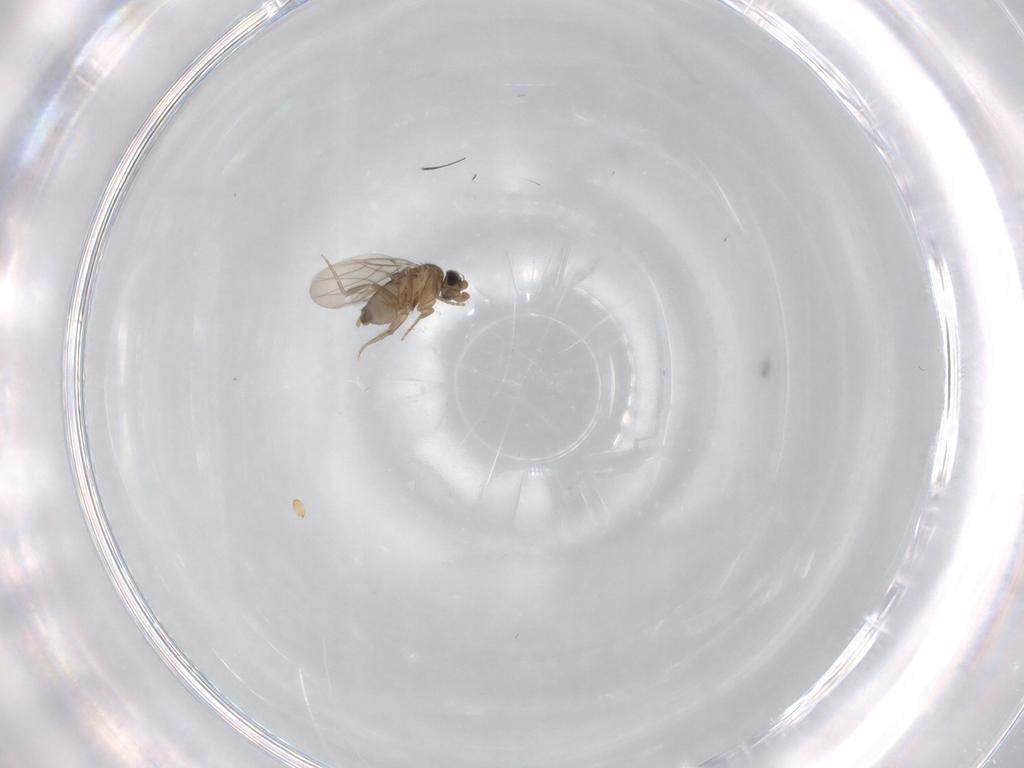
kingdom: Animalia
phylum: Arthropoda
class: Insecta
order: Diptera
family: Phoridae
